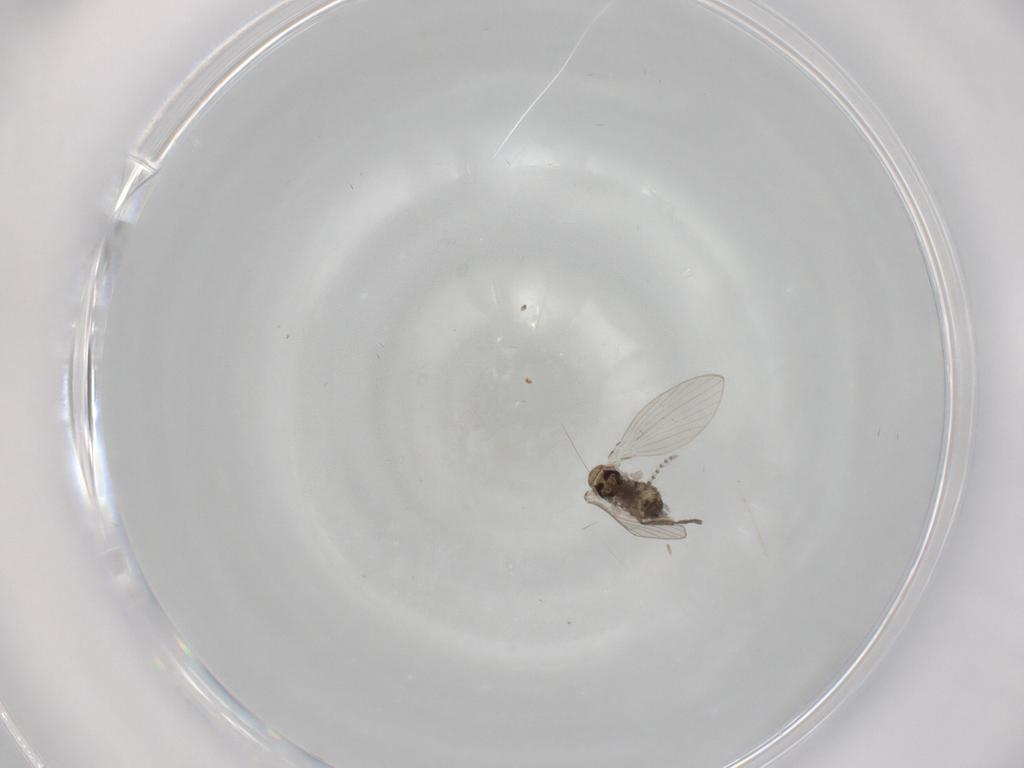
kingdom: Animalia
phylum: Arthropoda
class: Insecta
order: Diptera
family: Psychodidae
